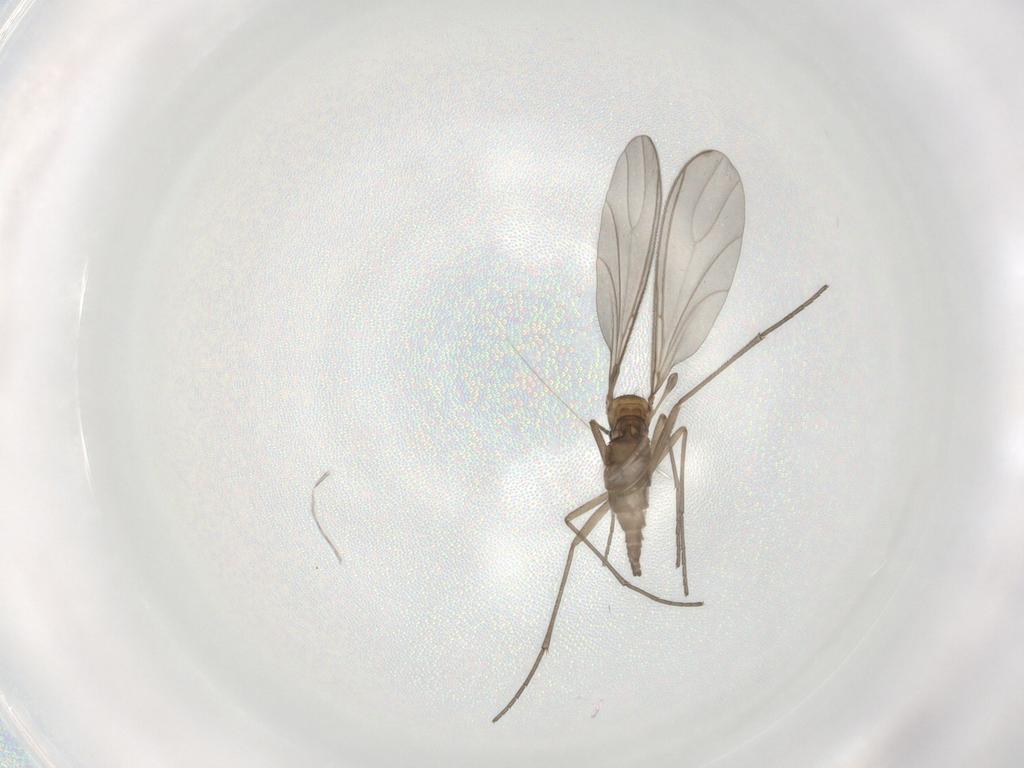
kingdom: Animalia
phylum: Arthropoda
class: Insecta
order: Diptera
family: Sciaridae
